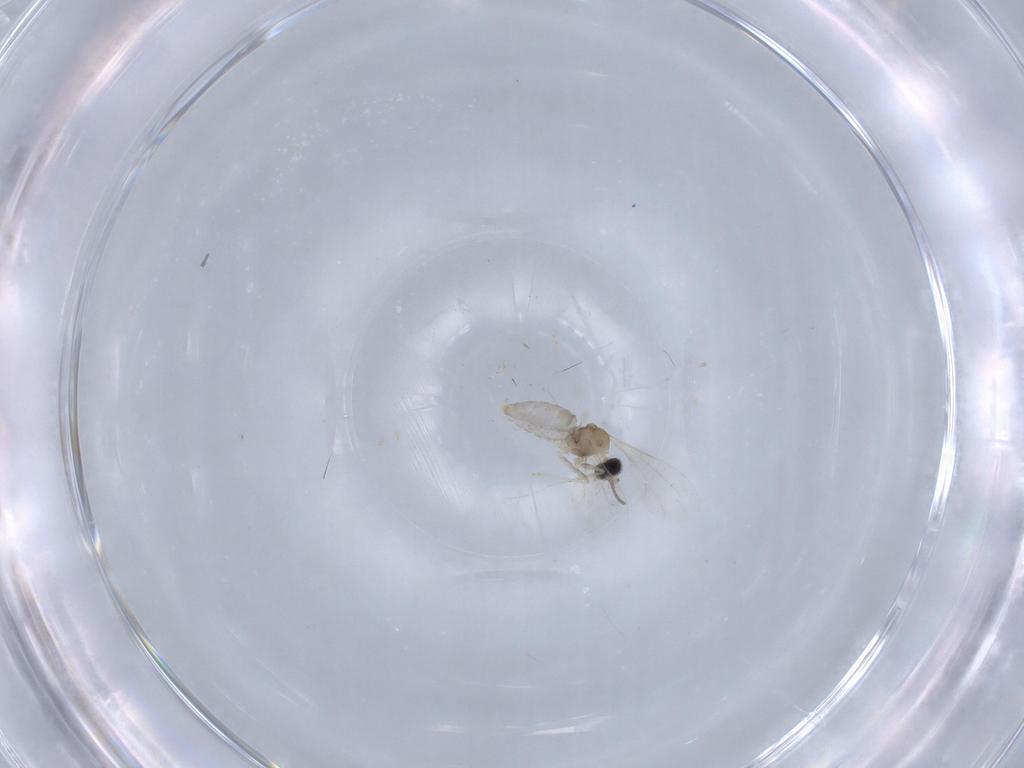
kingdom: Animalia
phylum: Arthropoda
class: Insecta
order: Diptera
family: Cecidomyiidae
